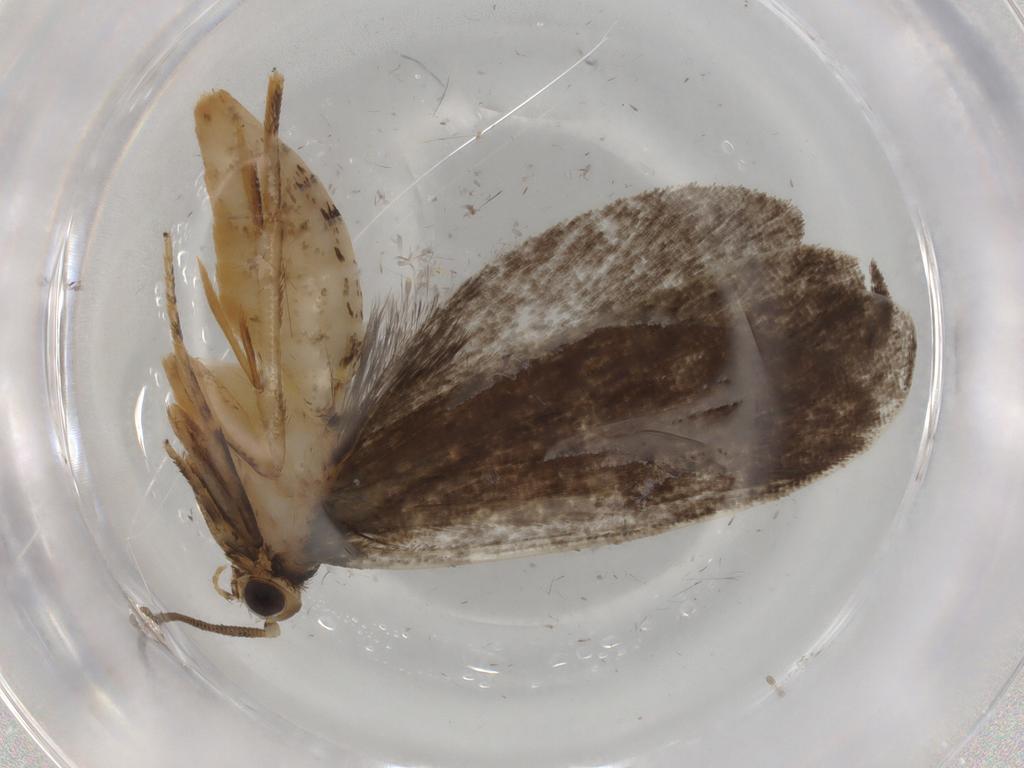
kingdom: Animalia
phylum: Arthropoda
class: Insecta
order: Lepidoptera
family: Tineidae
